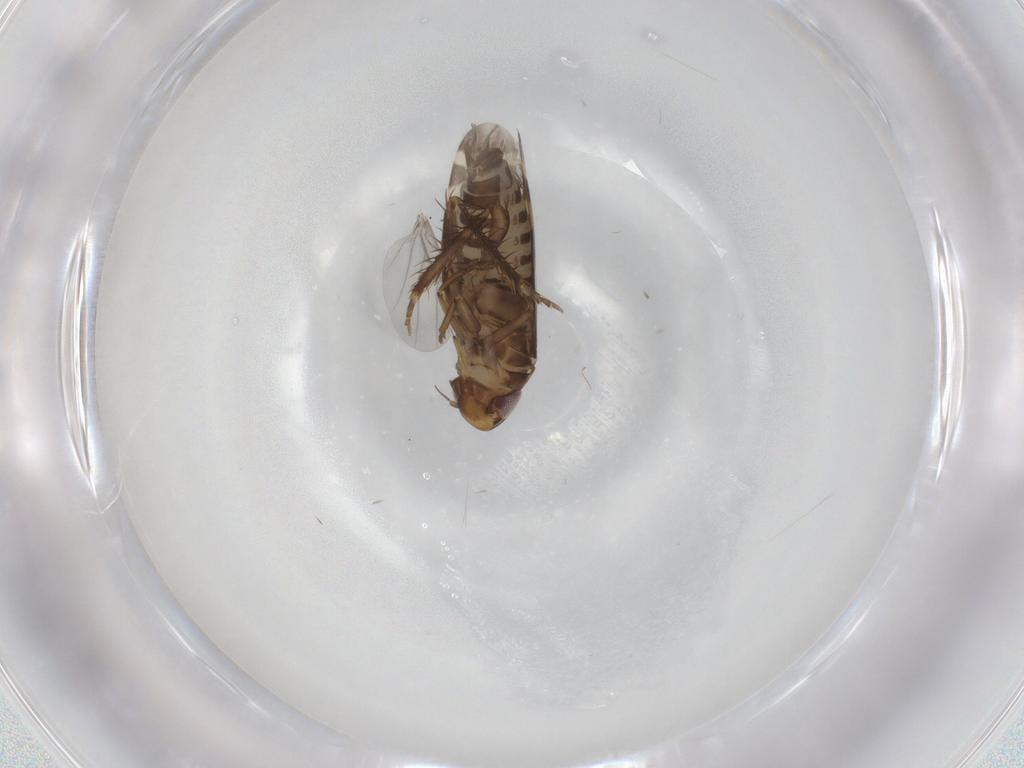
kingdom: Animalia
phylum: Arthropoda
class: Insecta
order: Hemiptera
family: Cicadellidae
